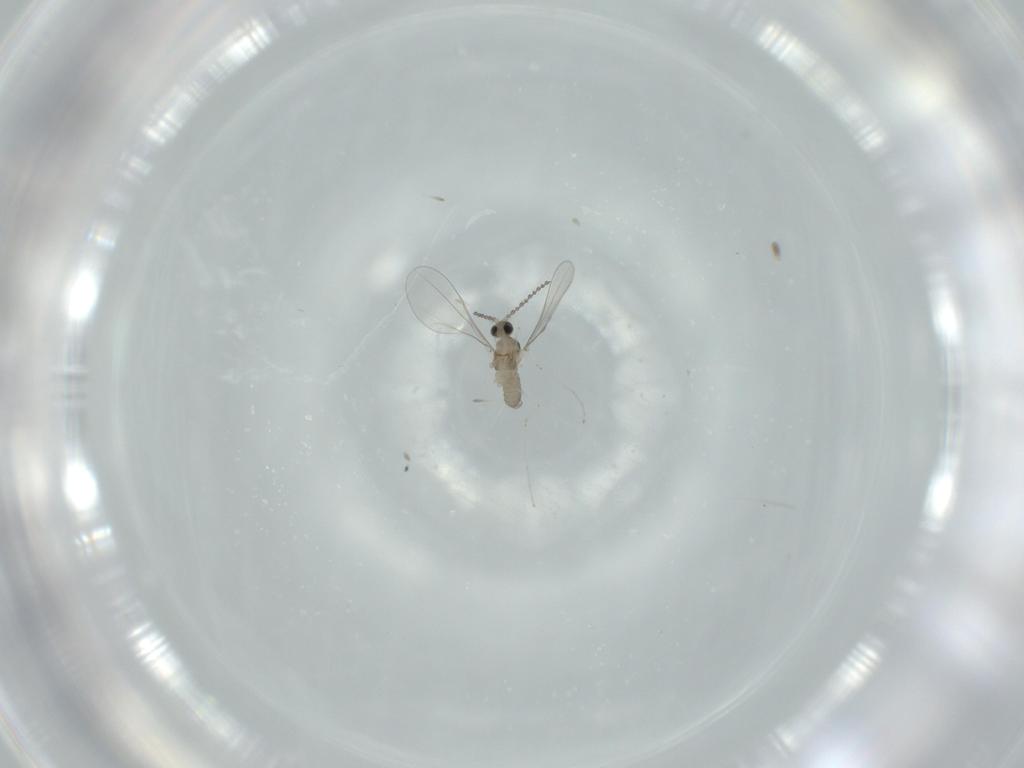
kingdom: Animalia
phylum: Arthropoda
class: Insecta
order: Diptera
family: Cecidomyiidae
